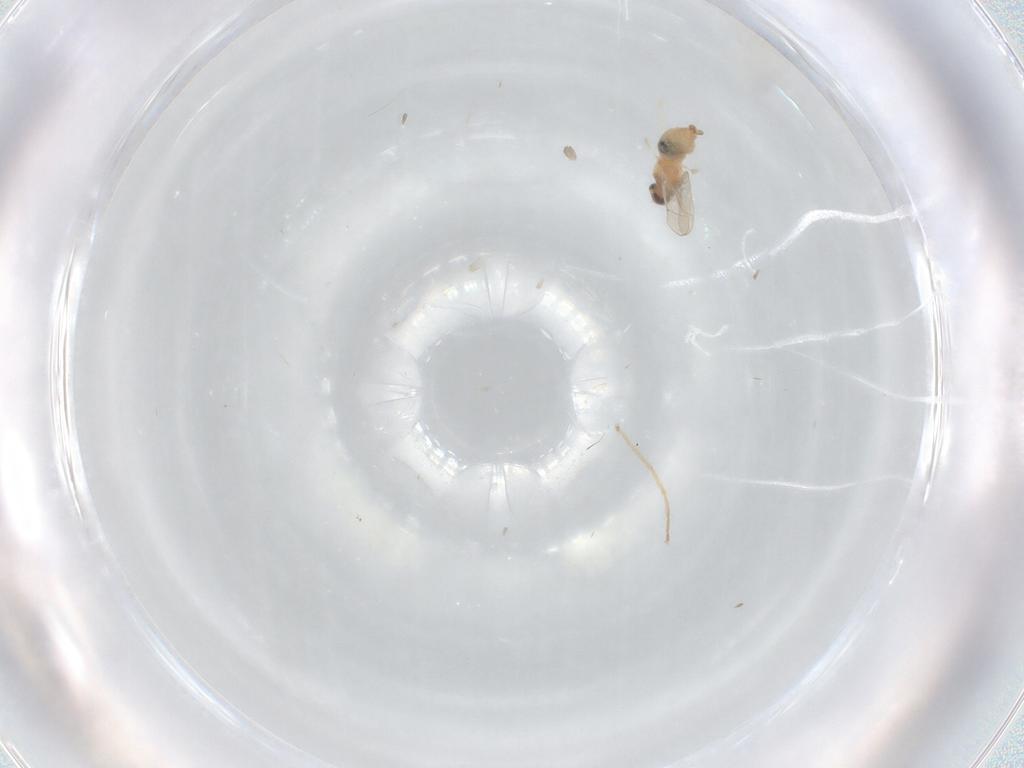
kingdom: Animalia
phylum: Arthropoda
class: Insecta
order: Diptera
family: Cecidomyiidae
